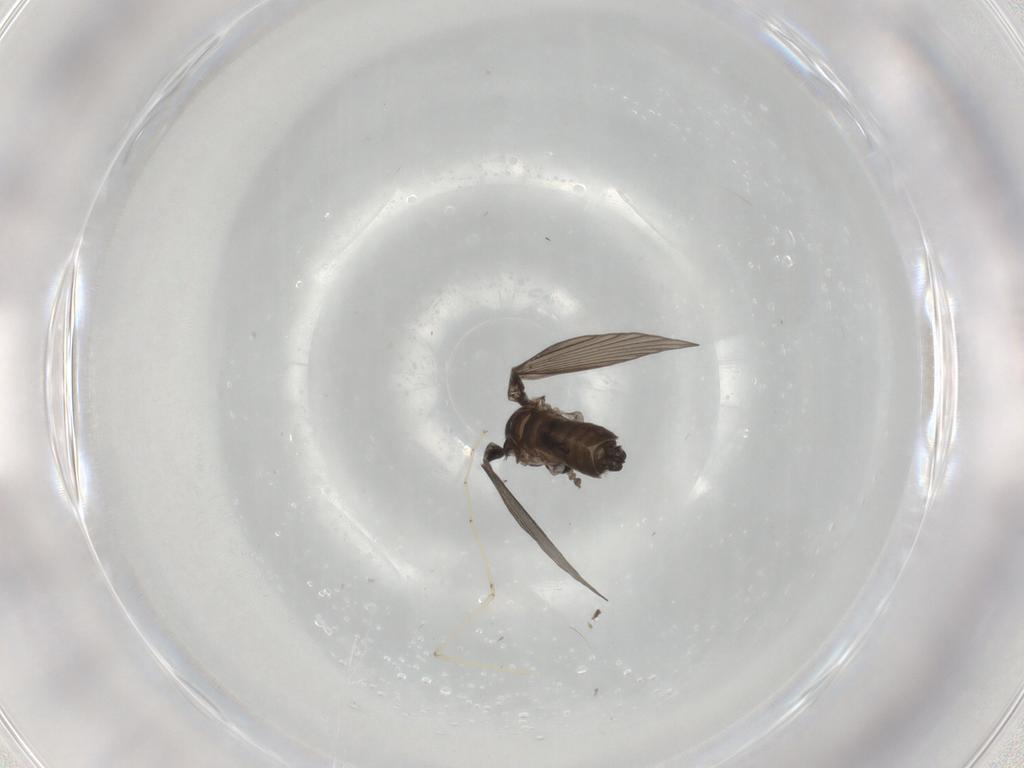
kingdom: Animalia
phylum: Arthropoda
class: Insecta
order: Diptera
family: Cecidomyiidae
